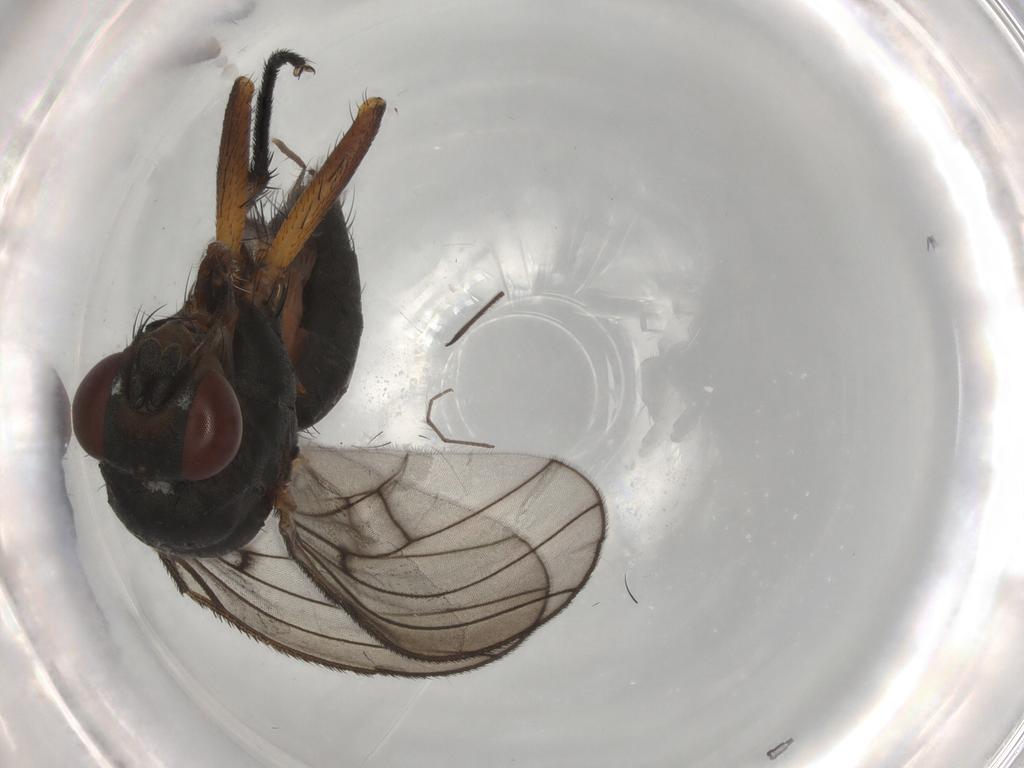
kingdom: Animalia
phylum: Arthropoda
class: Insecta
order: Diptera
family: Anthomyiidae
